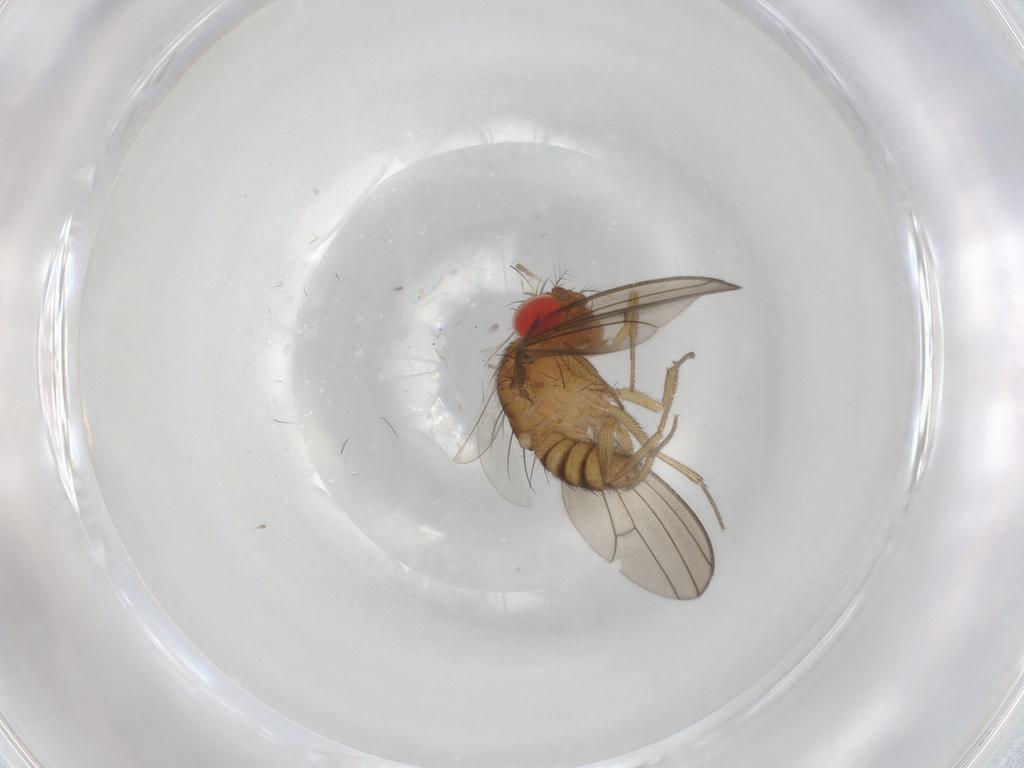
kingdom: Animalia
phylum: Arthropoda
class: Insecta
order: Diptera
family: Drosophilidae
